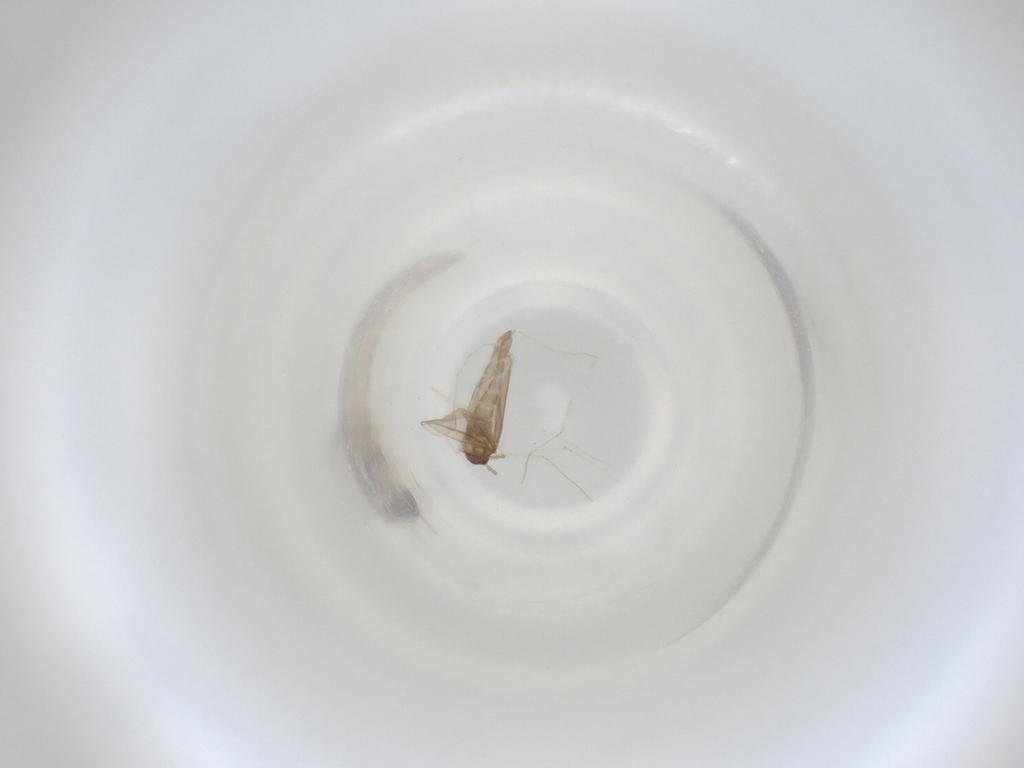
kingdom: Animalia
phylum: Arthropoda
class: Insecta
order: Diptera
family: Cecidomyiidae
